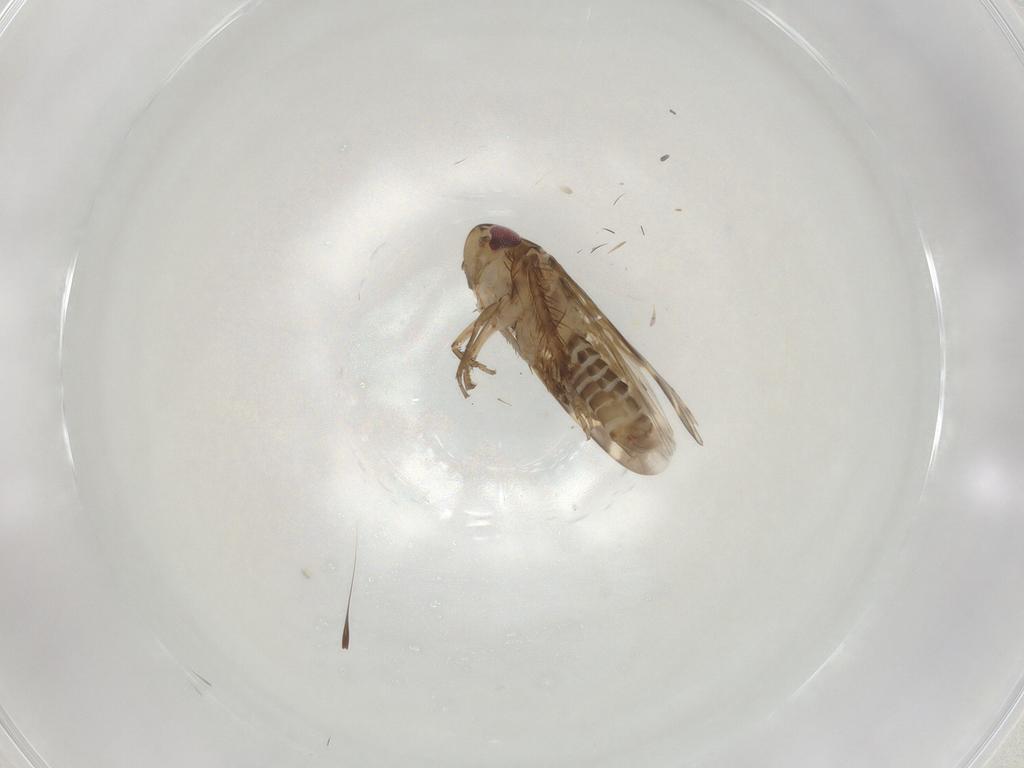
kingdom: Animalia
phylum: Arthropoda
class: Insecta
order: Hemiptera
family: Cicadellidae
